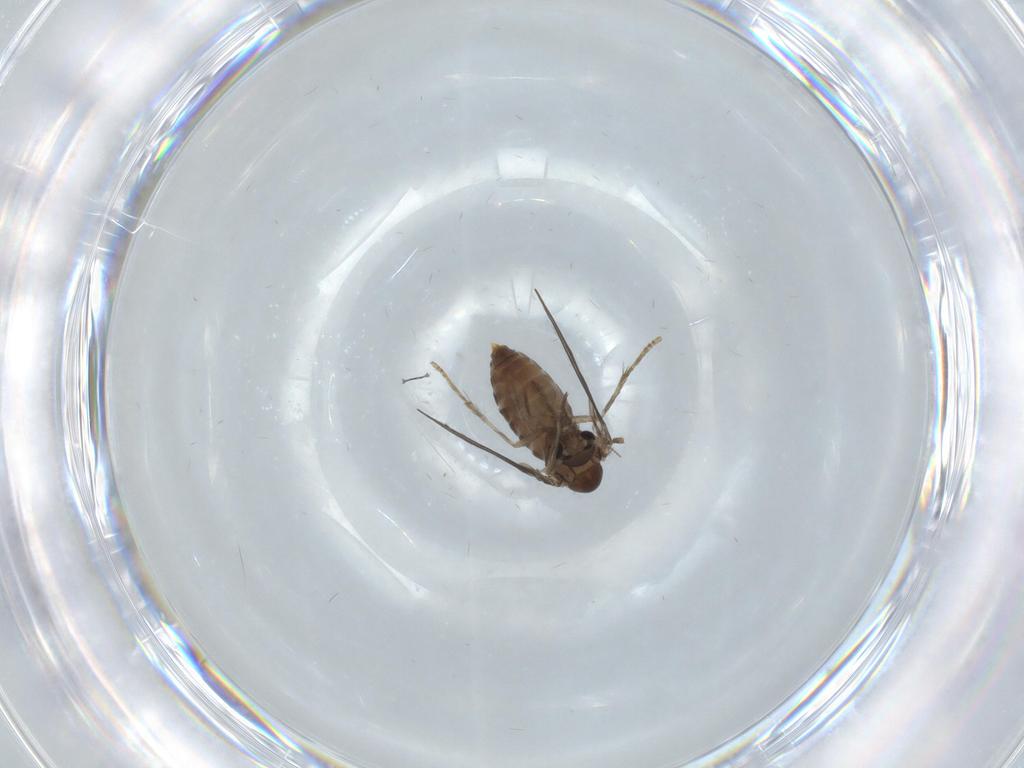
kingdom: Animalia
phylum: Arthropoda
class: Insecta
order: Diptera
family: Psychodidae
